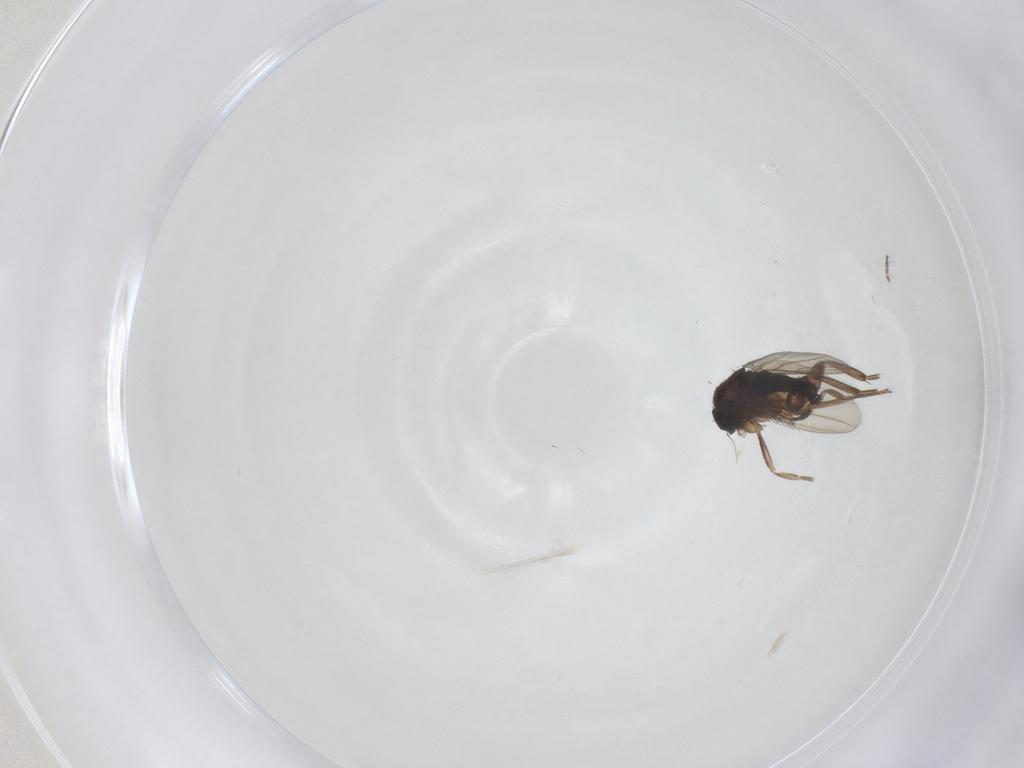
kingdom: Animalia
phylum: Arthropoda
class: Insecta
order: Diptera
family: Phoridae
